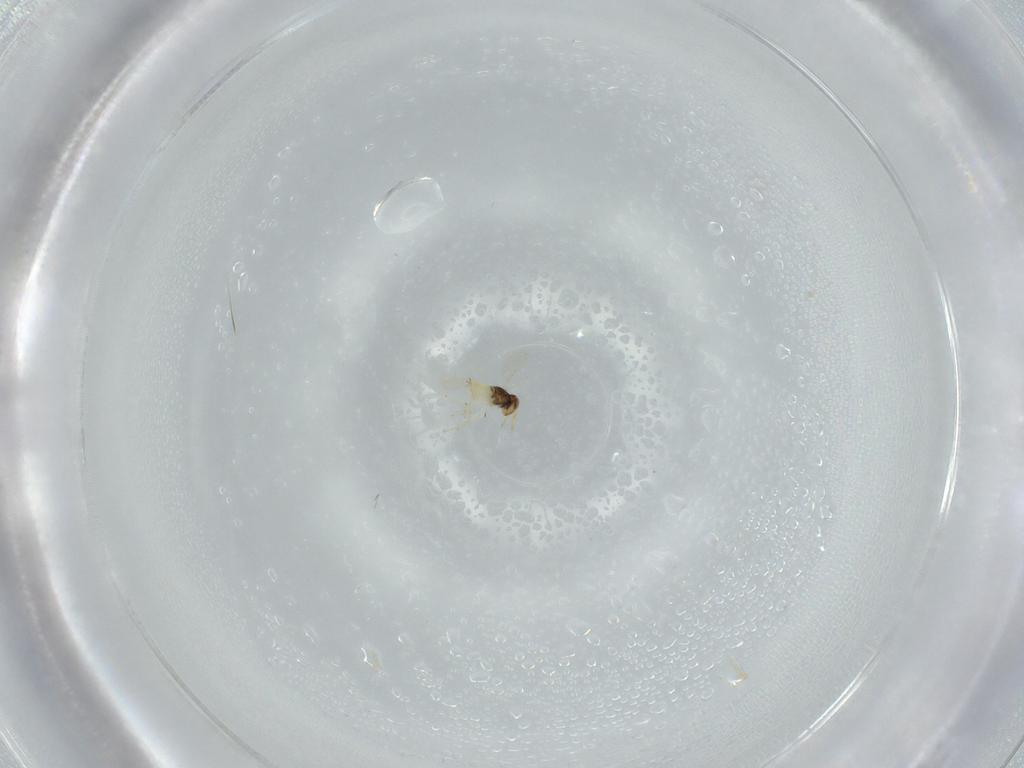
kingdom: Animalia
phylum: Arthropoda
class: Insecta
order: Hymenoptera
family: Aphelinidae
